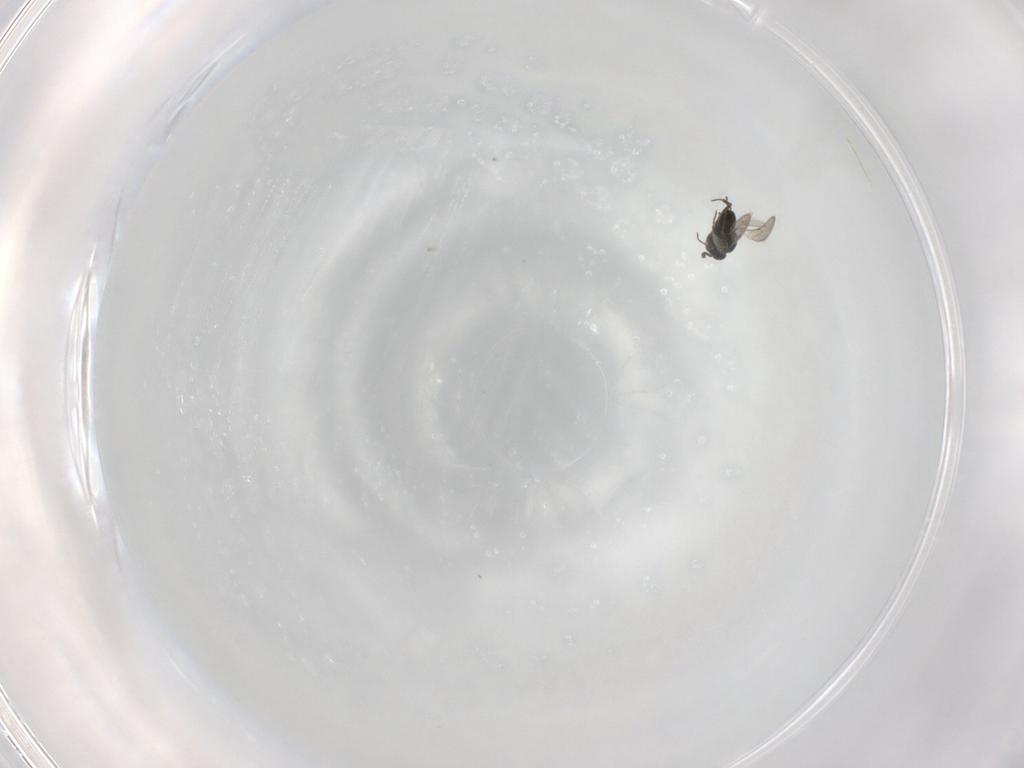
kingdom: Animalia
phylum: Arthropoda
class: Insecta
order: Hymenoptera
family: Scelionidae
